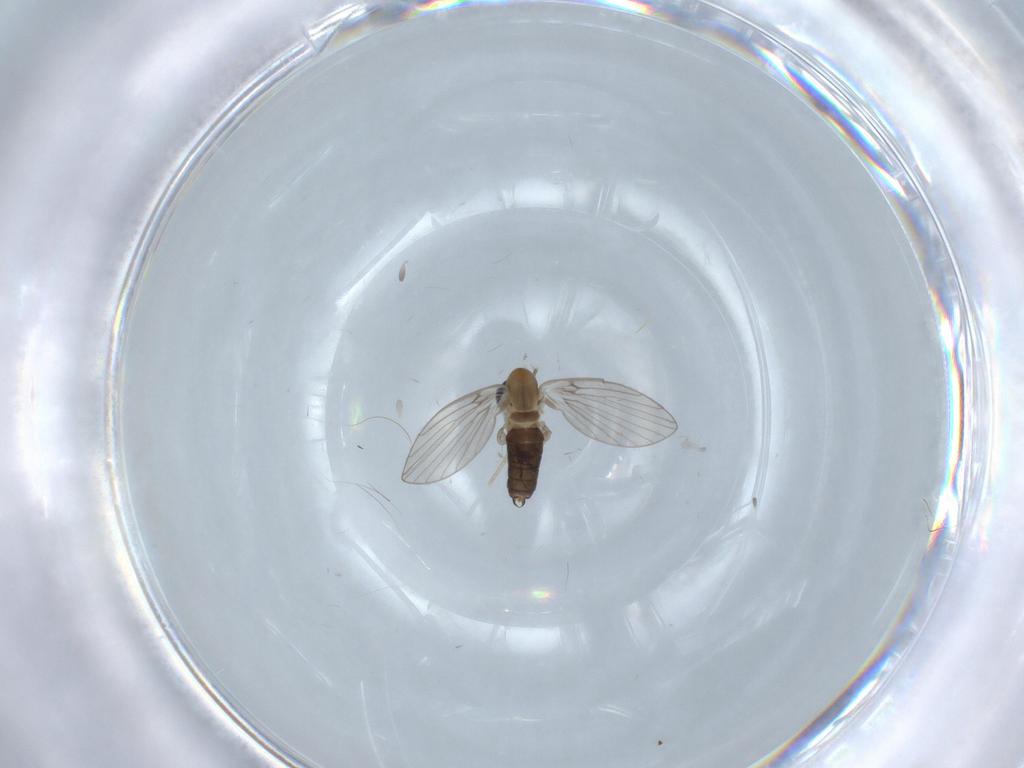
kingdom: Animalia
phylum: Arthropoda
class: Insecta
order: Diptera
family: Psychodidae
